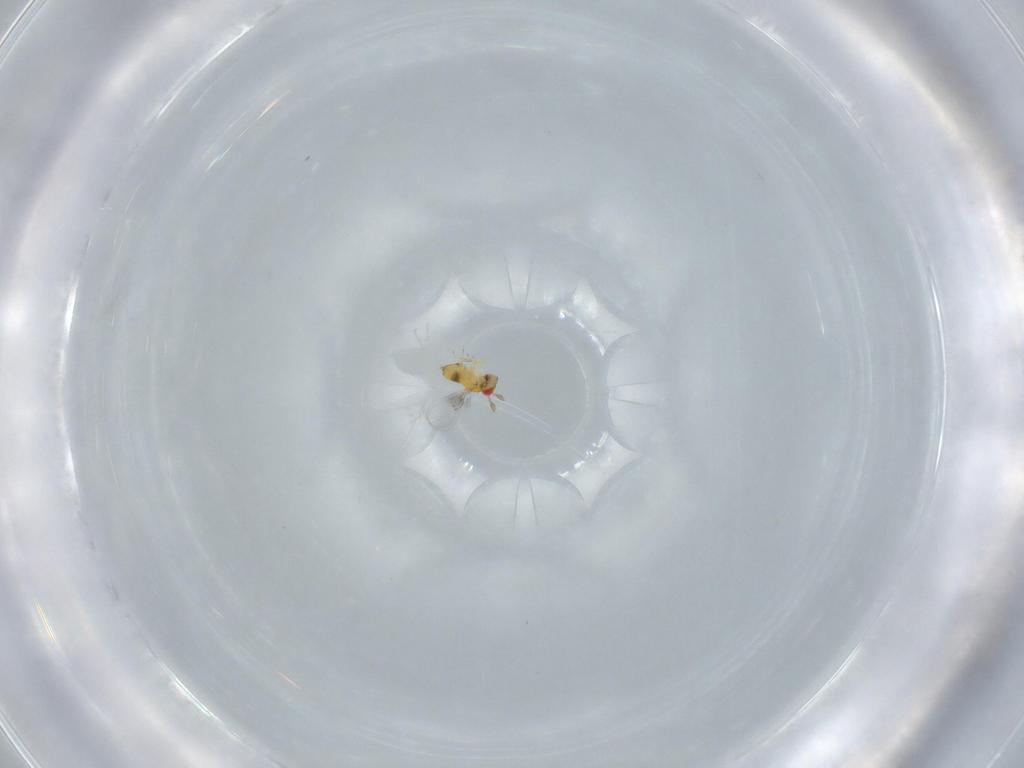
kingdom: Animalia
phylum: Arthropoda
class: Insecta
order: Hymenoptera
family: Trichogrammatidae
